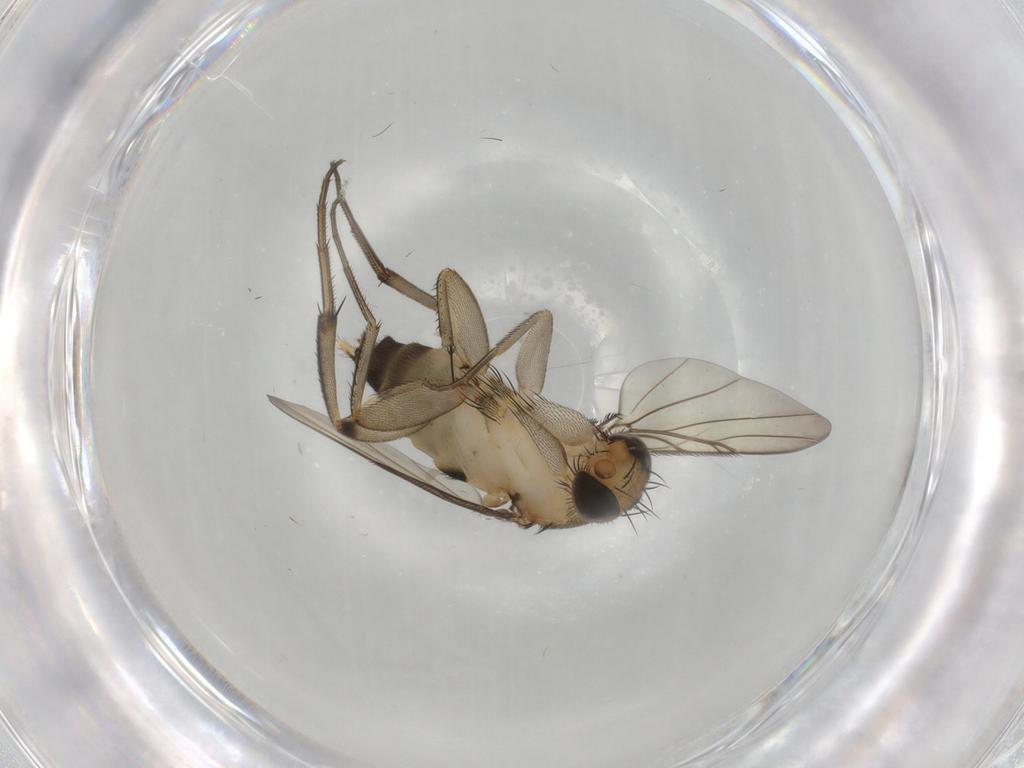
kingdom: Animalia
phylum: Arthropoda
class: Insecta
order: Diptera
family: Phoridae
